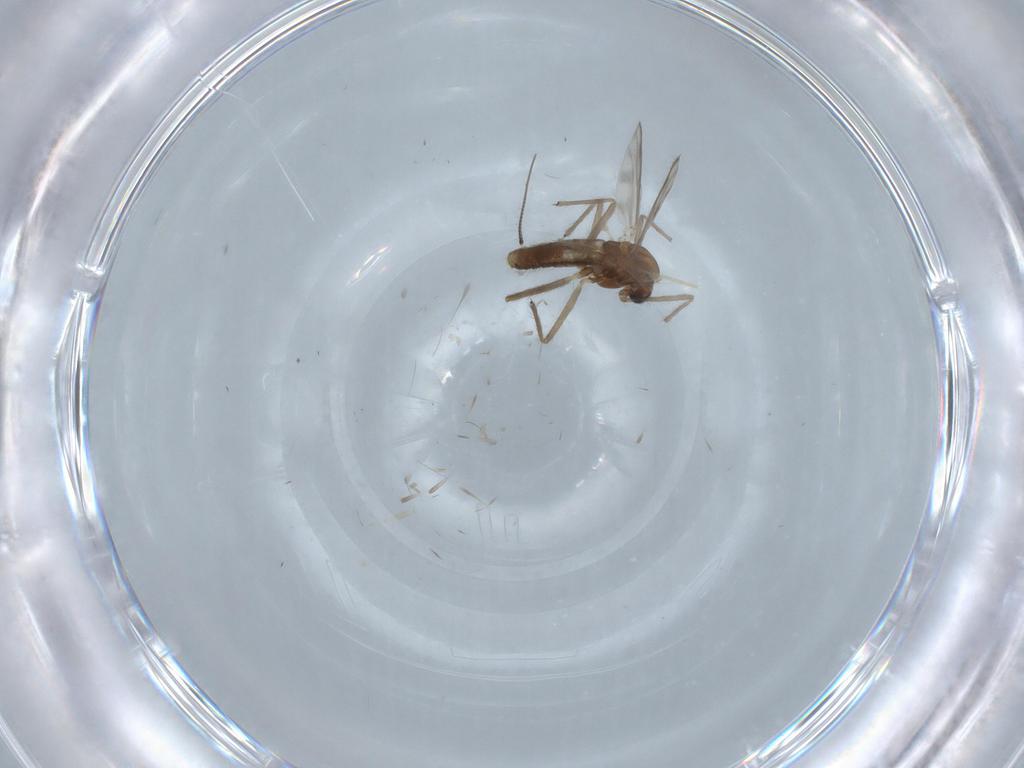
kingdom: Animalia
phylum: Arthropoda
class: Insecta
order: Diptera
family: Chironomidae
